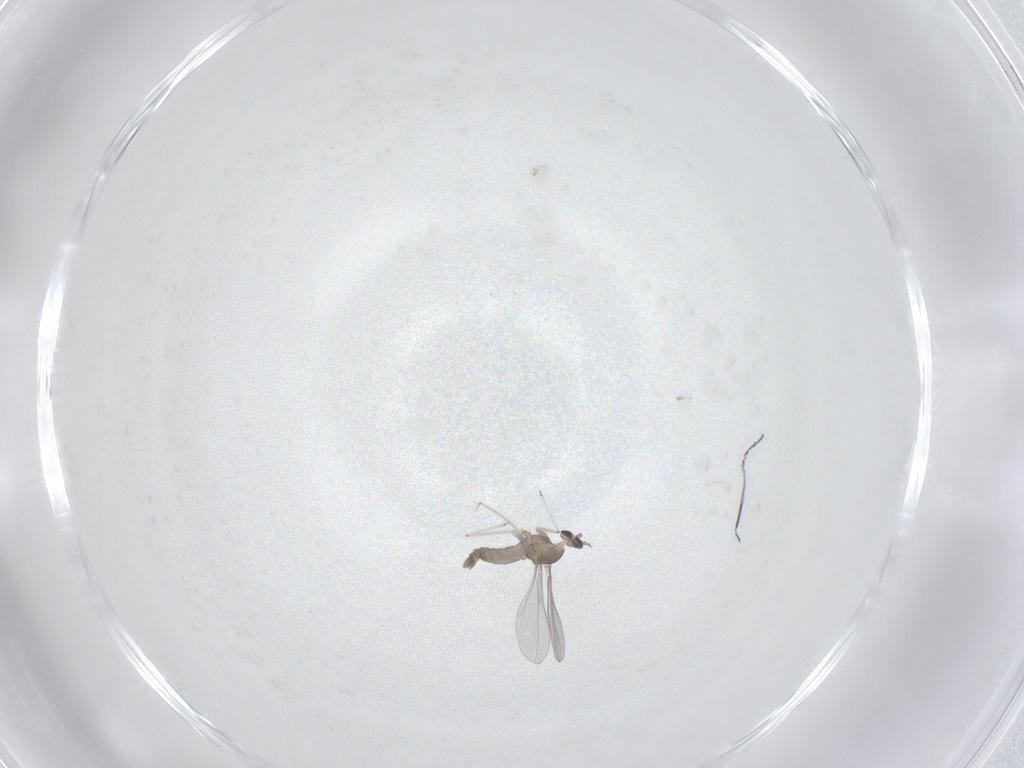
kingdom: Animalia
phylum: Arthropoda
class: Insecta
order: Diptera
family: Cecidomyiidae
